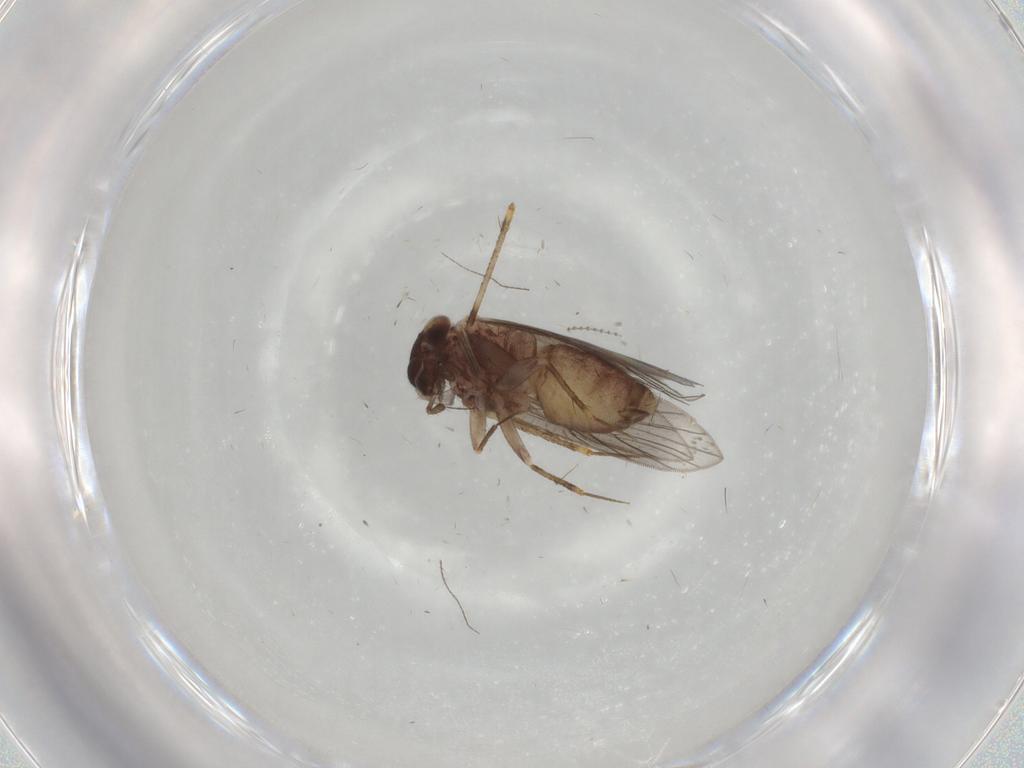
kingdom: Animalia
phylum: Arthropoda
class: Insecta
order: Psocodea
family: Lepidopsocidae
